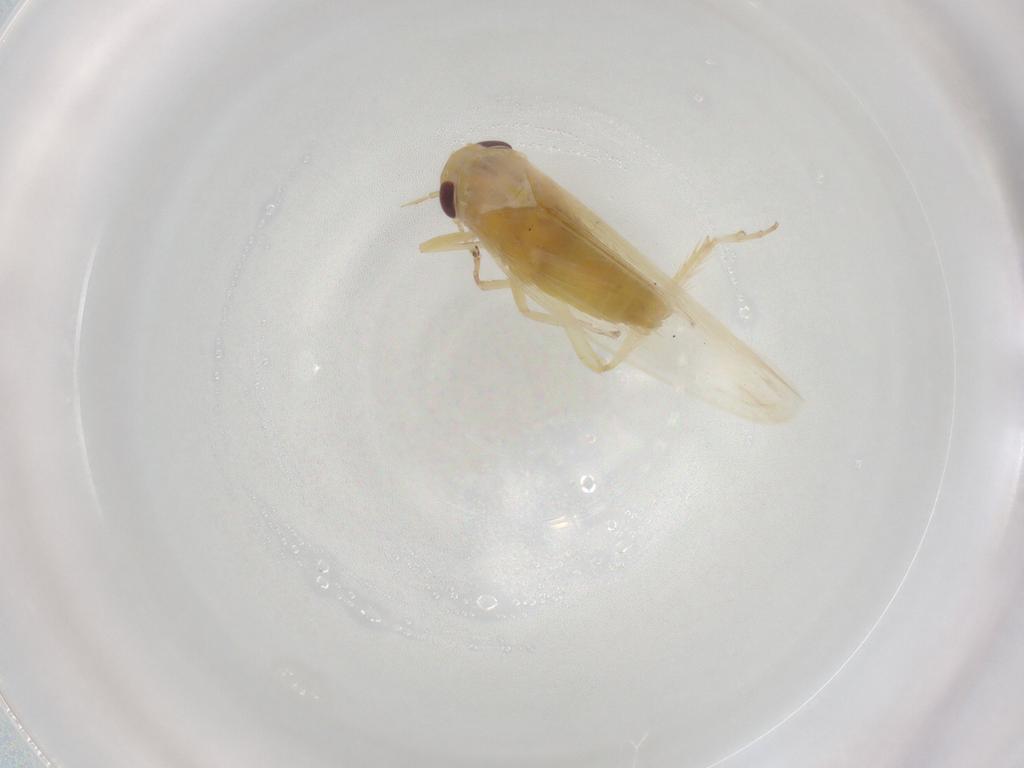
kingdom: Animalia
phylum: Arthropoda
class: Insecta
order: Hemiptera
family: Cicadellidae
